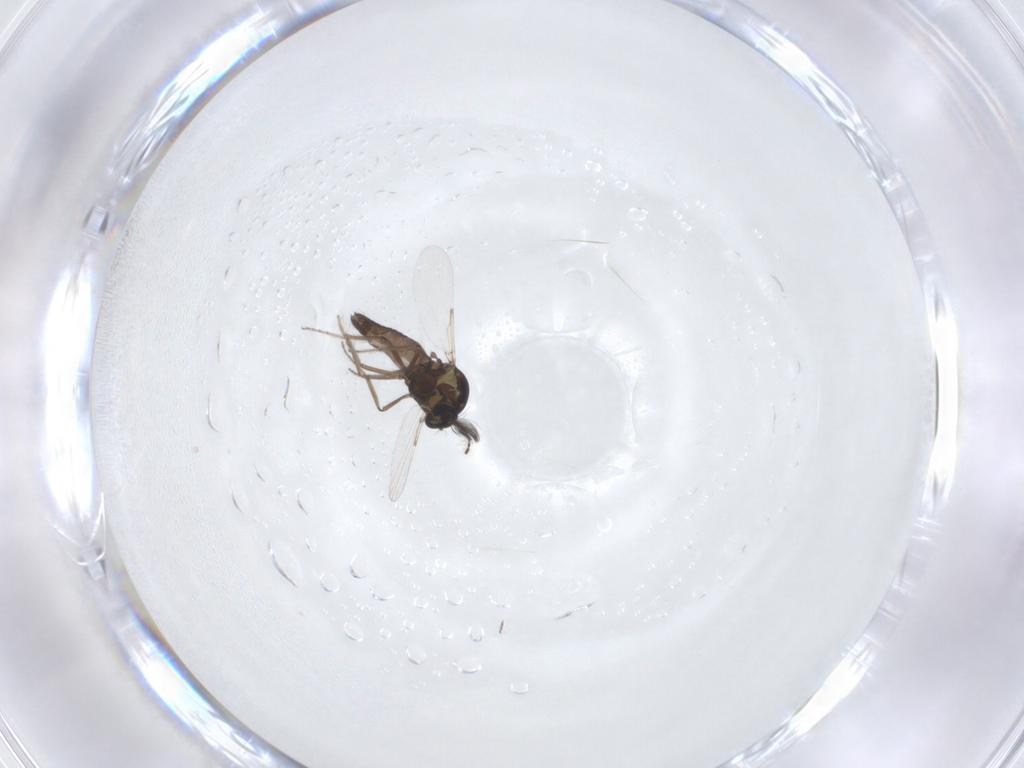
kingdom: Animalia
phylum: Arthropoda
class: Insecta
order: Diptera
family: Ceratopogonidae
